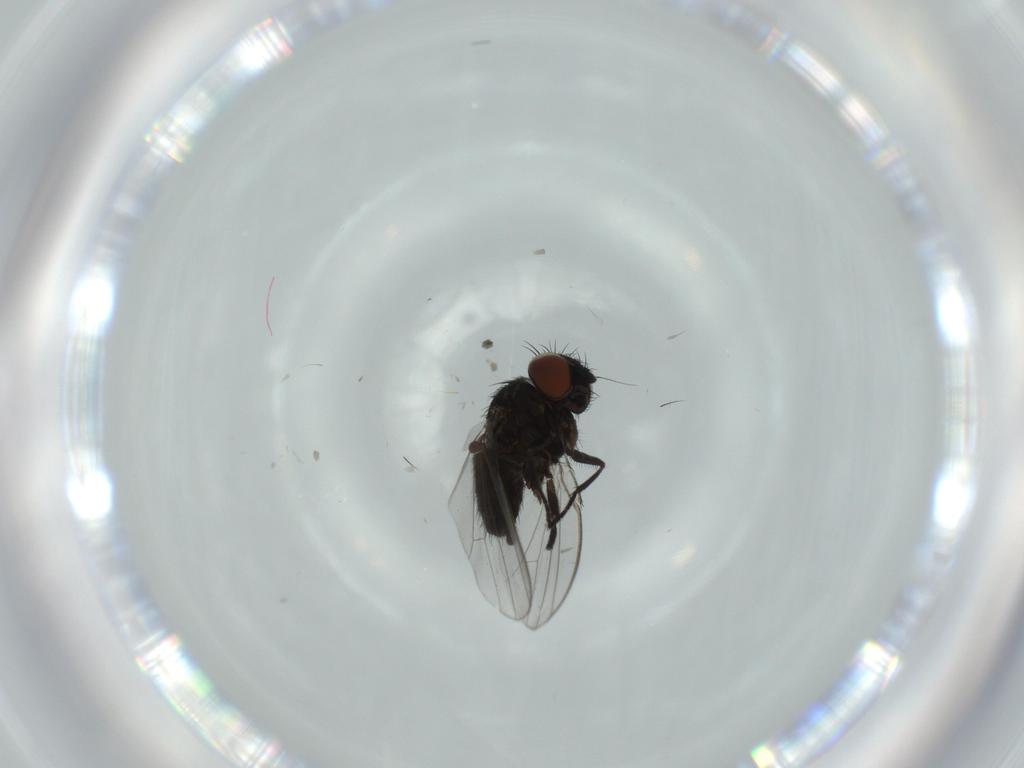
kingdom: Animalia
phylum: Arthropoda
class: Insecta
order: Diptera
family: Milichiidae
